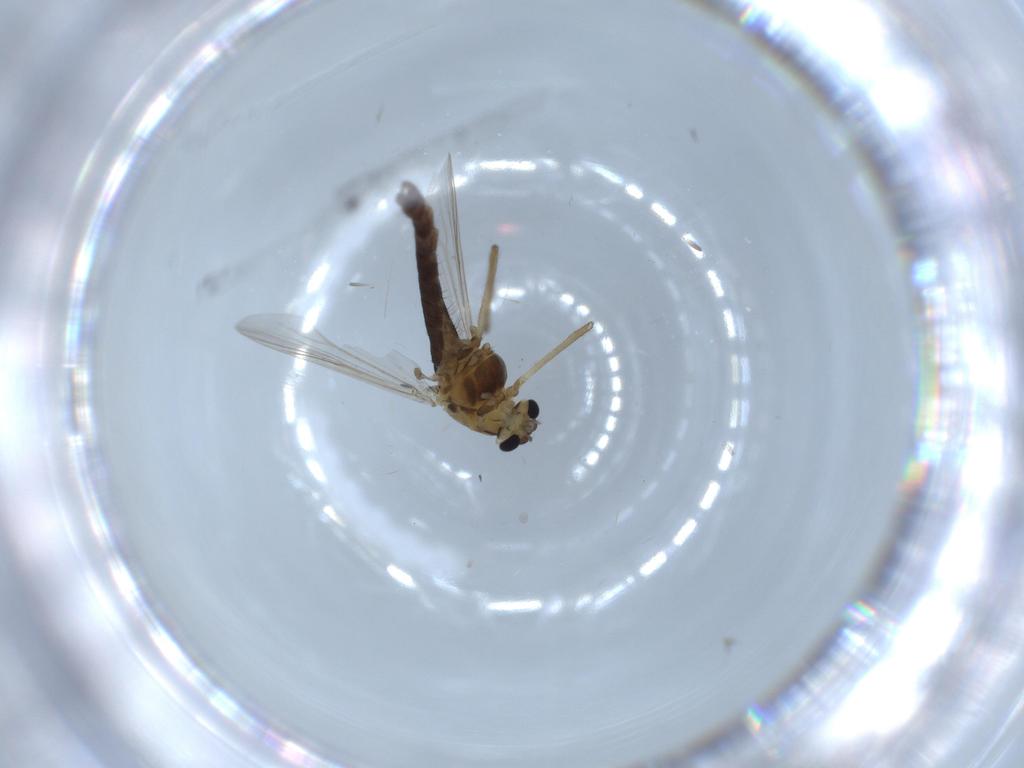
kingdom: Animalia
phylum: Arthropoda
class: Insecta
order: Diptera
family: Chironomidae
